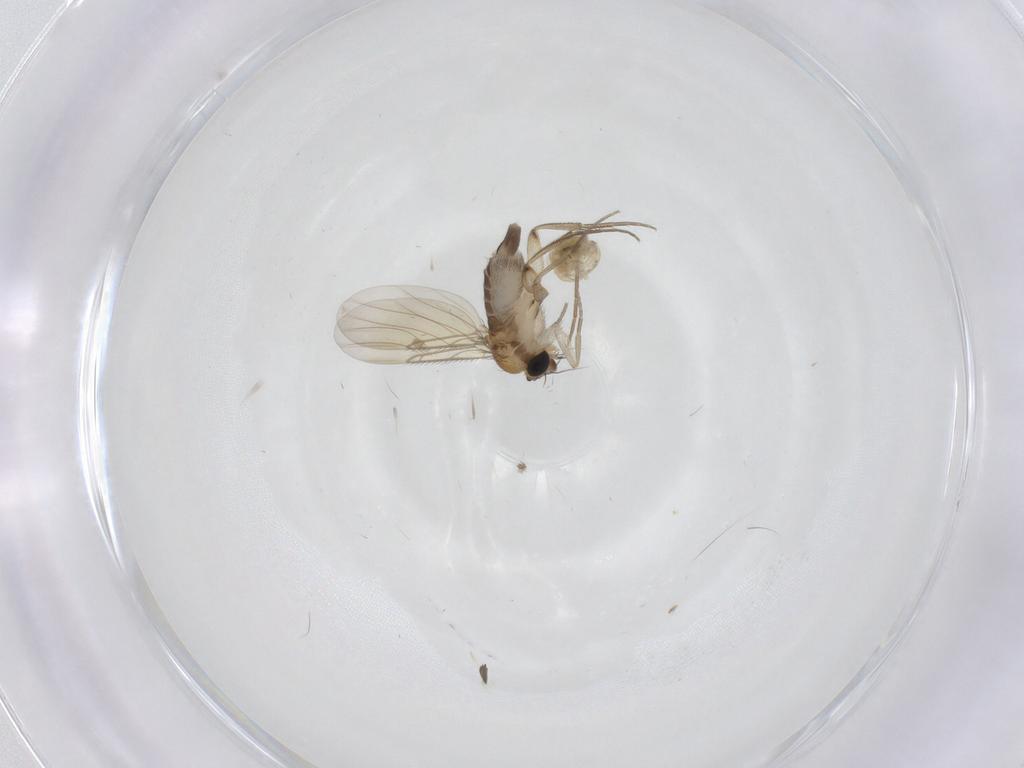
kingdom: Animalia
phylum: Arthropoda
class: Insecta
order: Diptera
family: Phoridae
